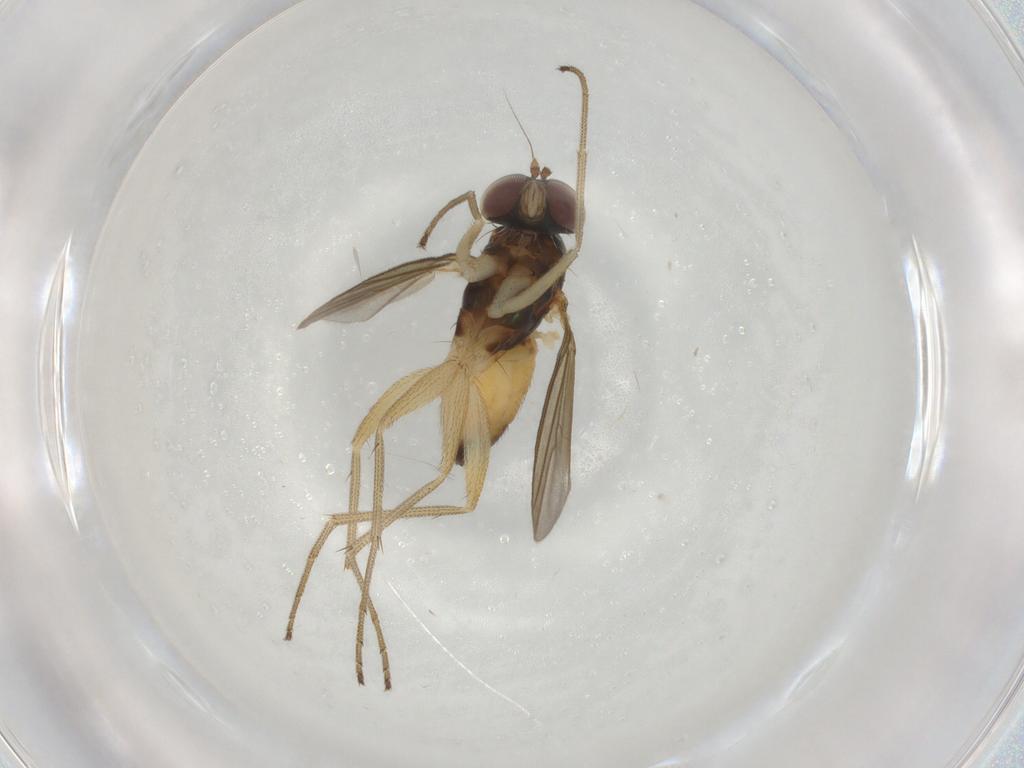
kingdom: Animalia
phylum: Arthropoda
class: Insecta
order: Diptera
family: Dolichopodidae
